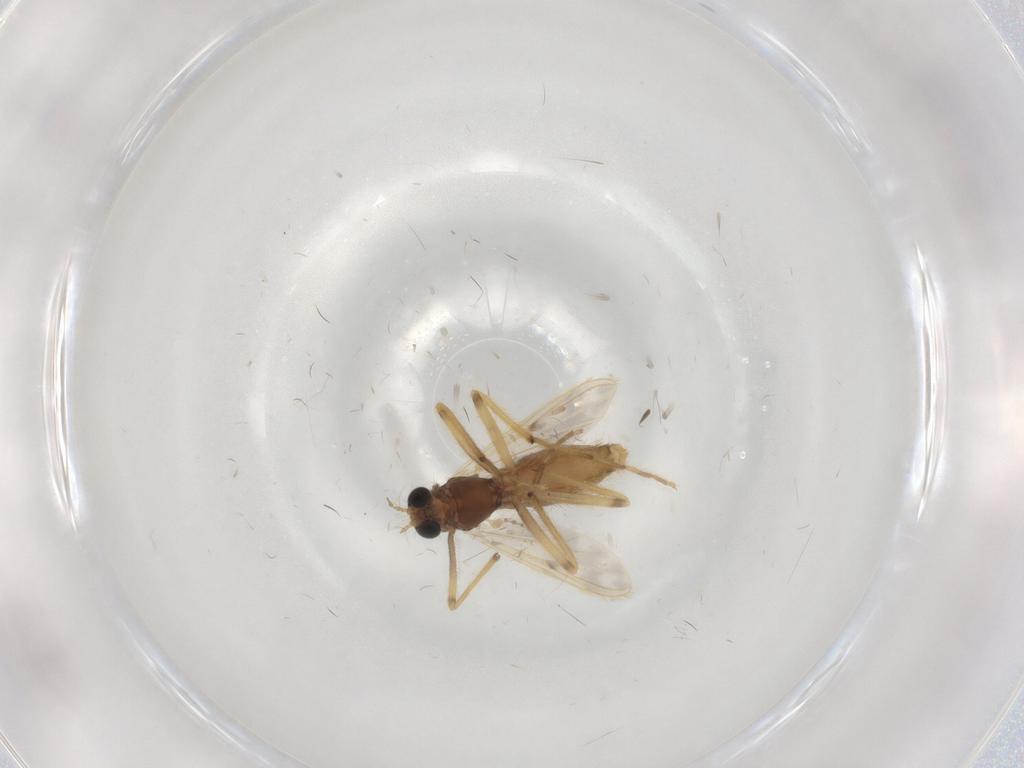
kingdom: Animalia
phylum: Arthropoda
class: Insecta
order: Diptera
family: Chironomidae
